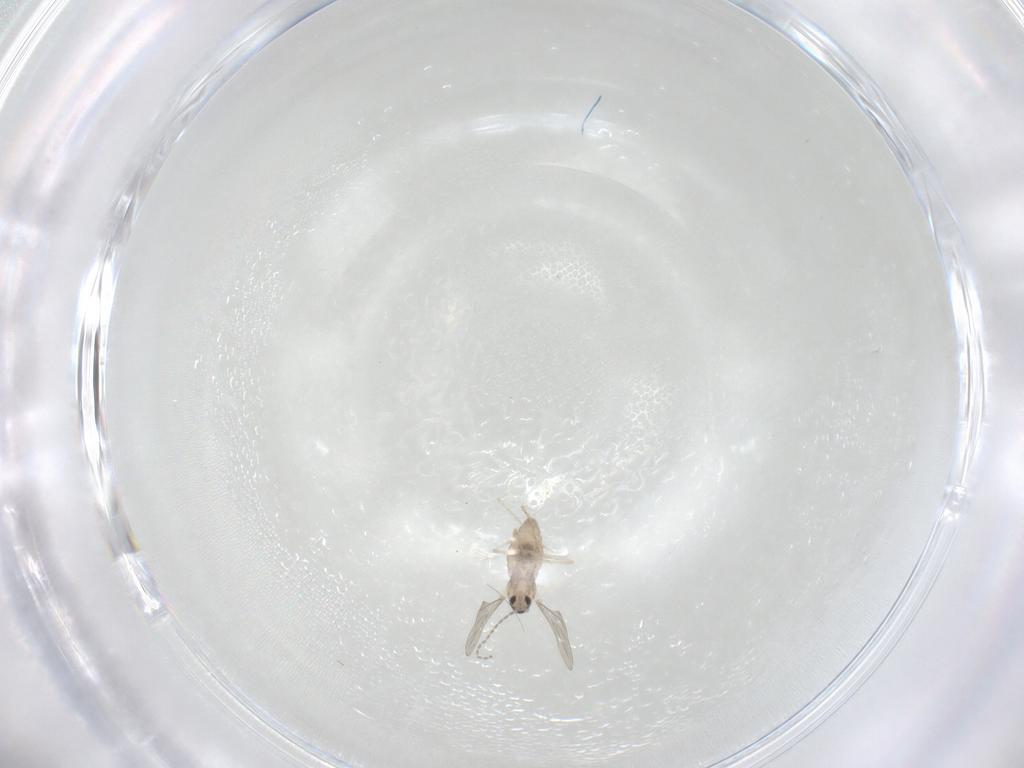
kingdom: Animalia
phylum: Arthropoda
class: Insecta
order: Diptera
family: Cecidomyiidae
